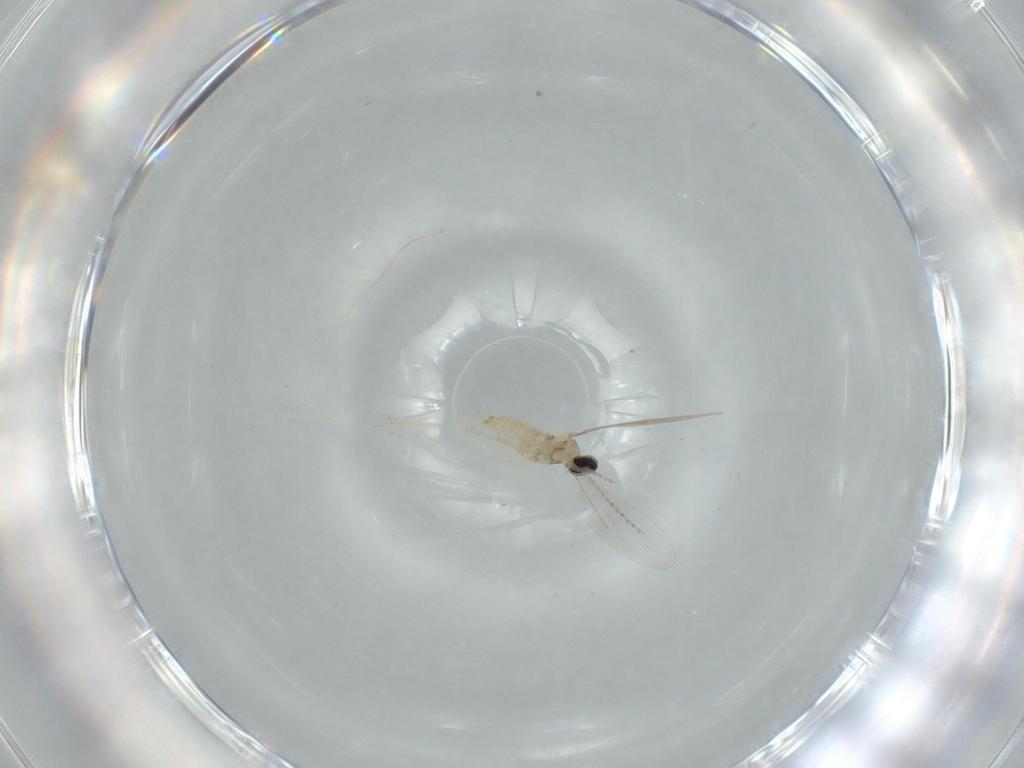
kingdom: Animalia
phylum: Arthropoda
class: Insecta
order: Diptera
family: Cecidomyiidae
